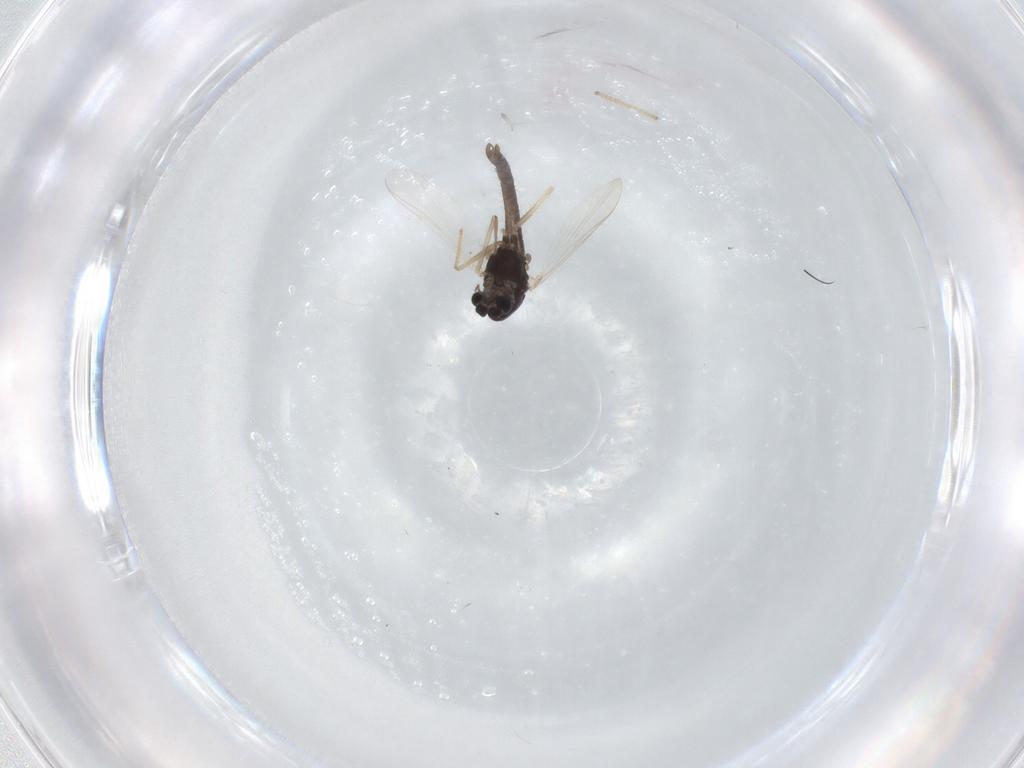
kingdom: Animalia
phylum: Arthropoda
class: Insecta
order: Diptera
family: Chironomidae
